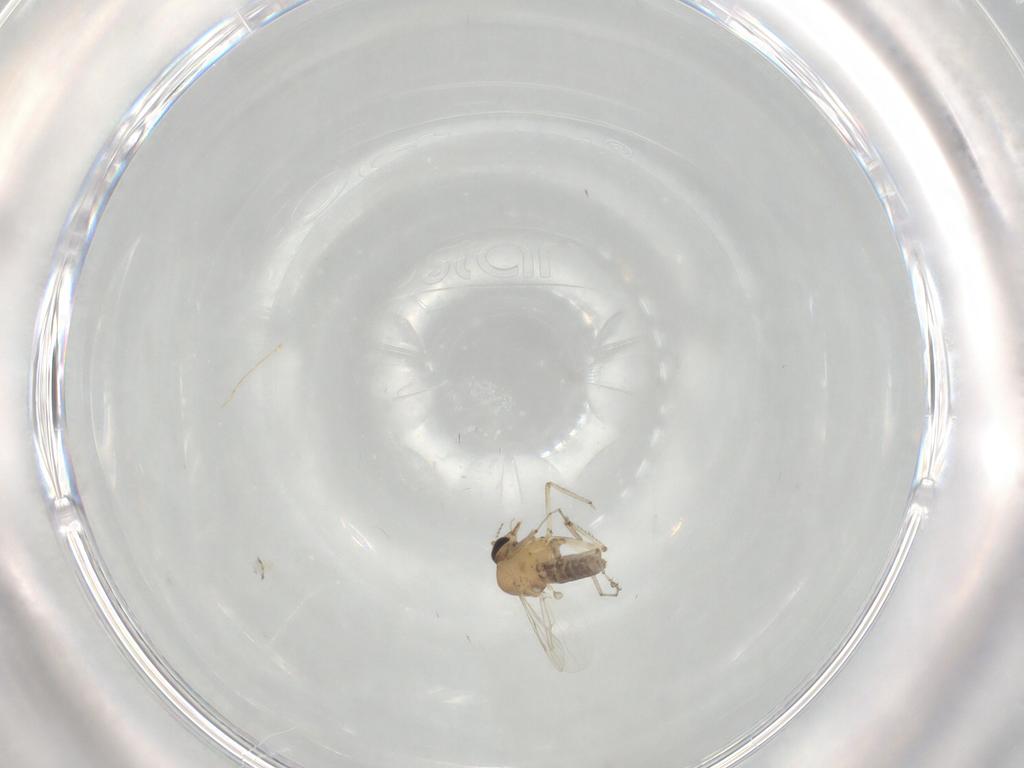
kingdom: Animalia
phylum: Arthropoda
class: Insecta
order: Diptera
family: Ceratopogonidae
